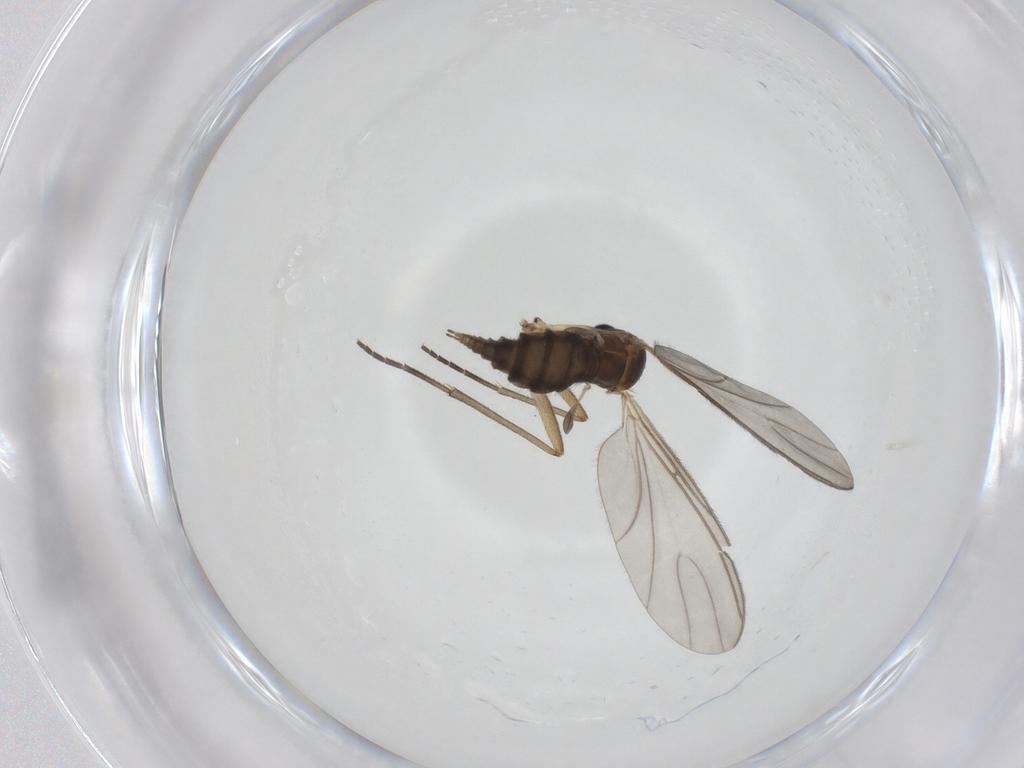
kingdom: Animalia
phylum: Arthropoda
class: Insecta
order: Diptera
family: Sciaridae
